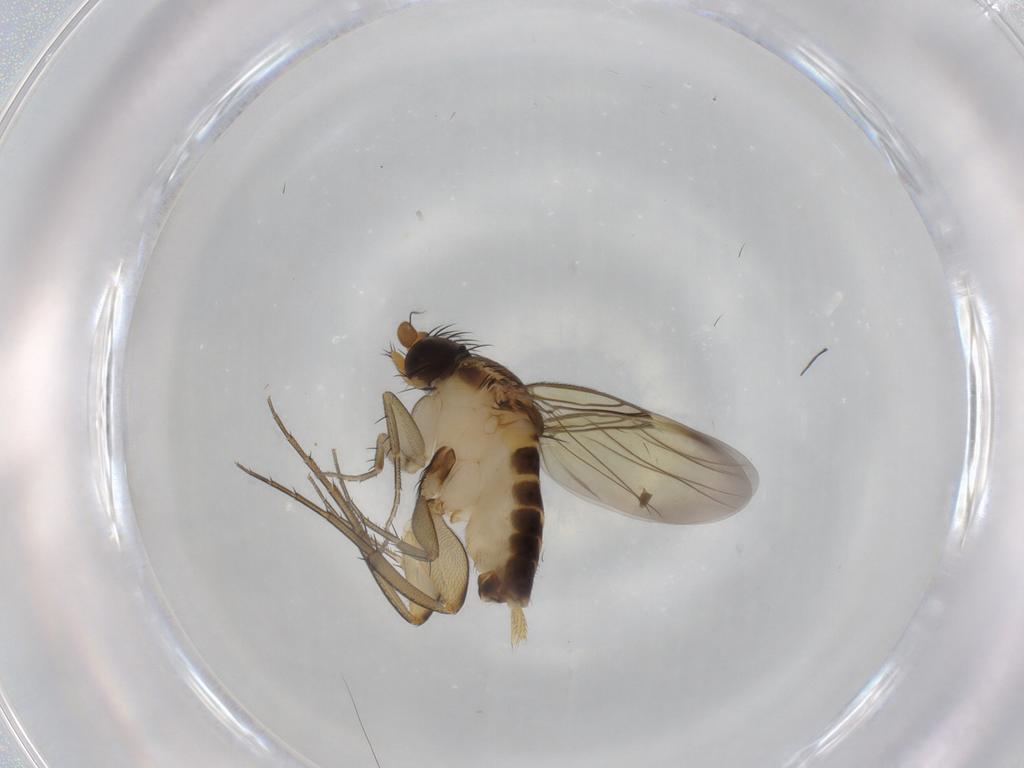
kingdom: Animalia
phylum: Arthropoda
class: Insecta
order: Diptera
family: Phoridae
